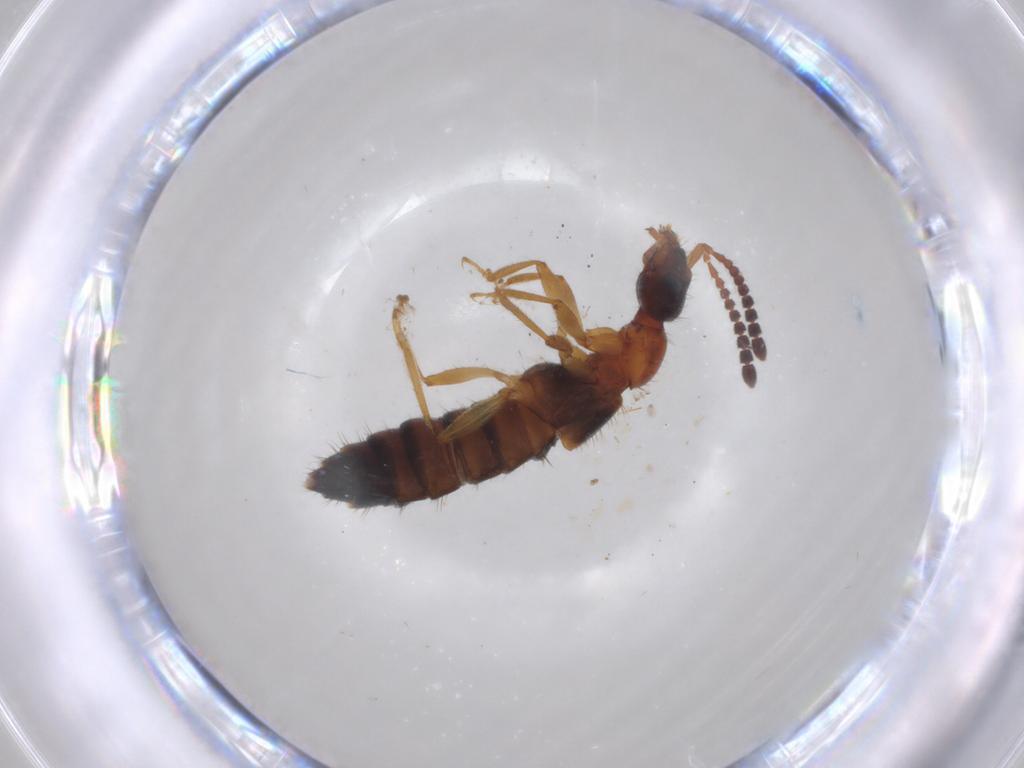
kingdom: Animalia
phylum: Arthropoda
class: Insecta
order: Coleoptera
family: Staphylinidae
